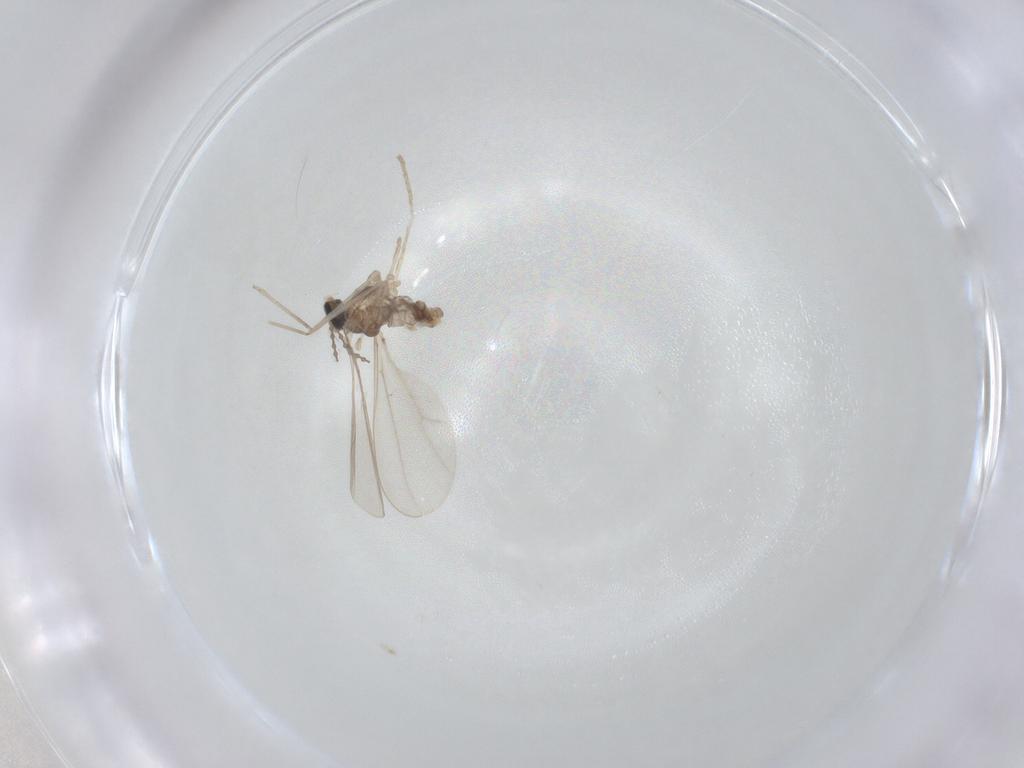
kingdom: Animalia
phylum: Arthropoda
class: Insecta
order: Diptera
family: Cecidomyiidae
